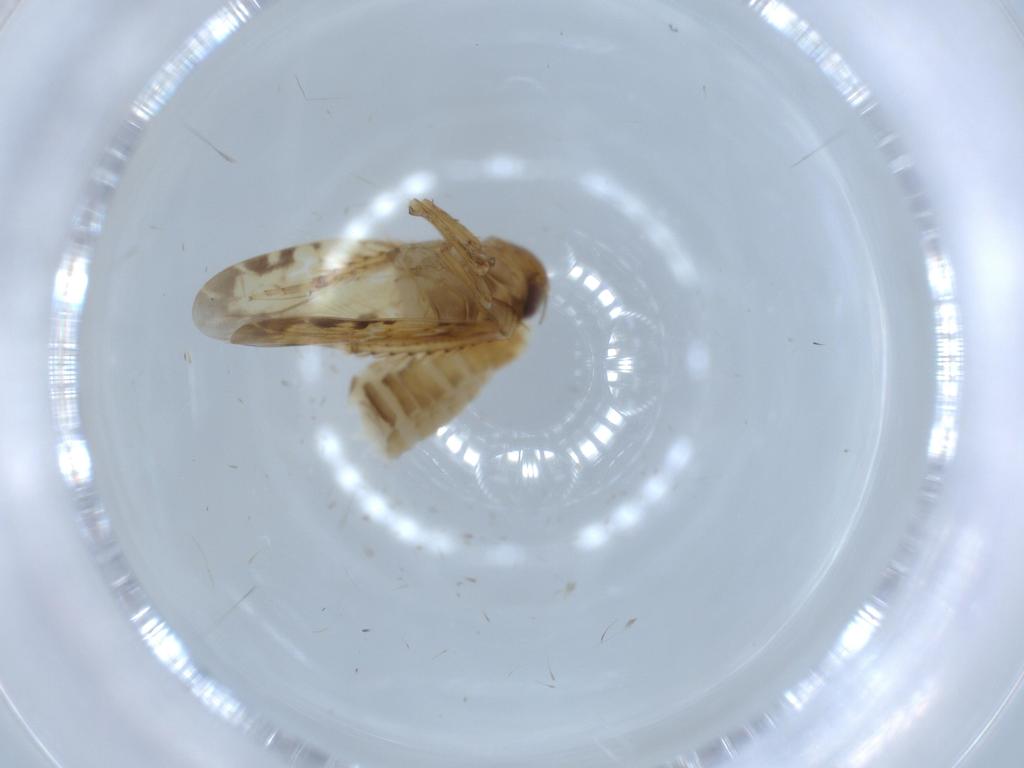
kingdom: Animalia
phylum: Arthropoda
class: Insecta
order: Hemiptera
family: Cicadellidae
